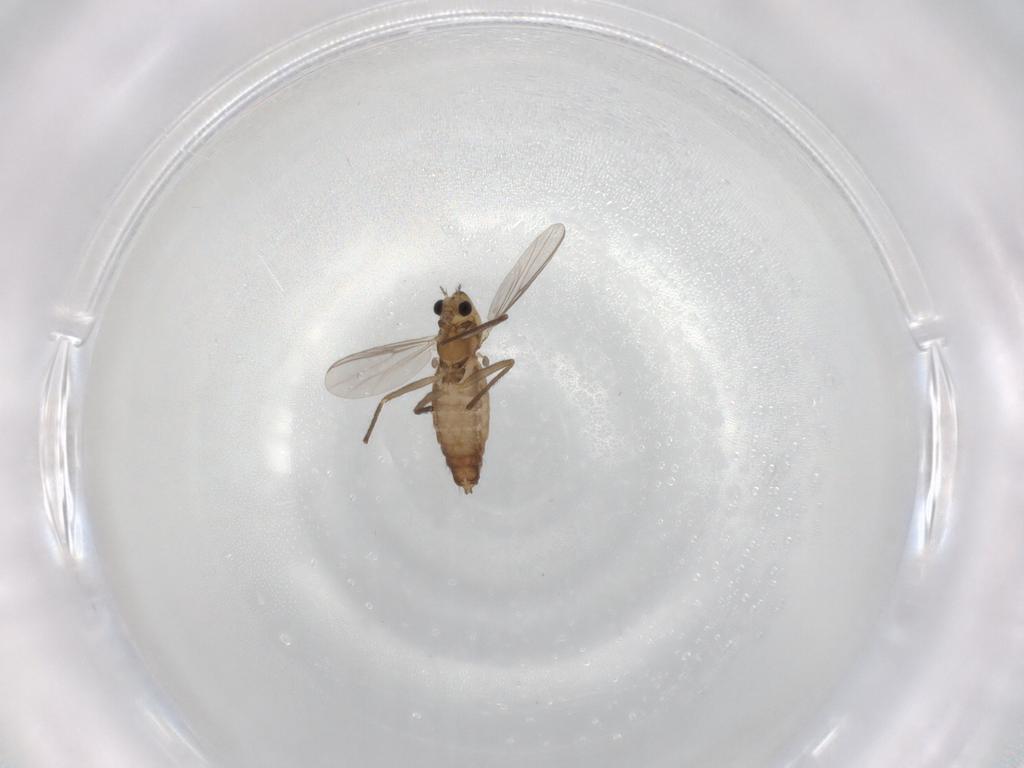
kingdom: Animalia
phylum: Arthropoda
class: Insecta
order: Diptera
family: Chironomidae
